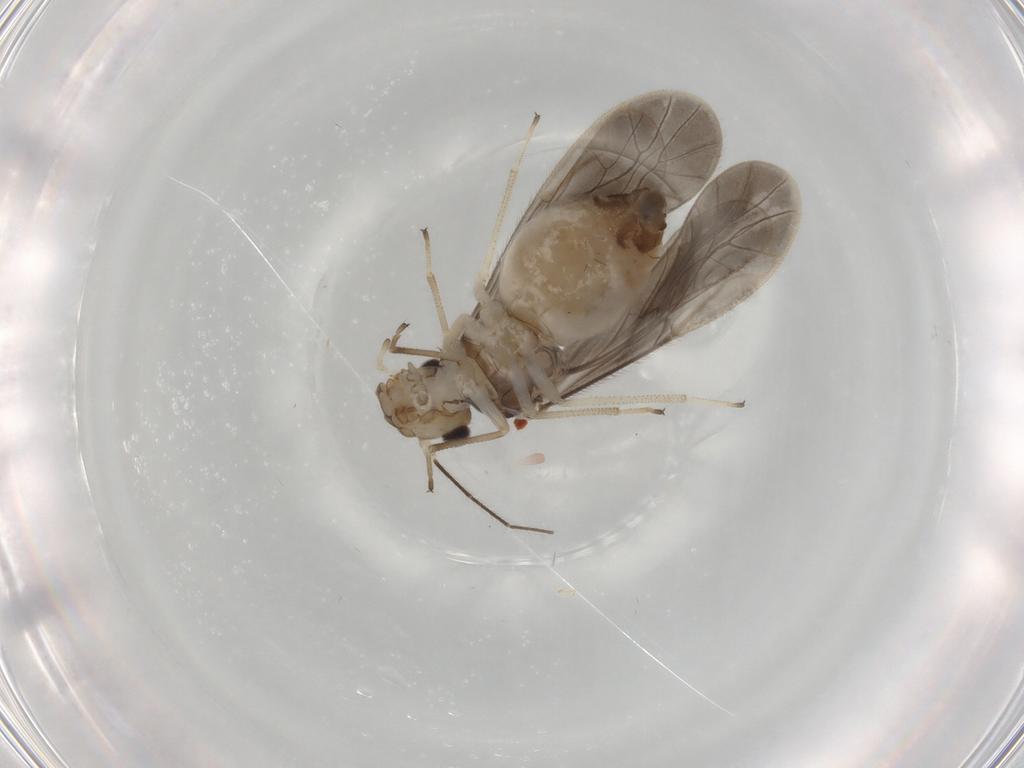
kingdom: Animalia
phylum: Arthropoda
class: Insecta
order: Psocodea
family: Caeciliusidae
